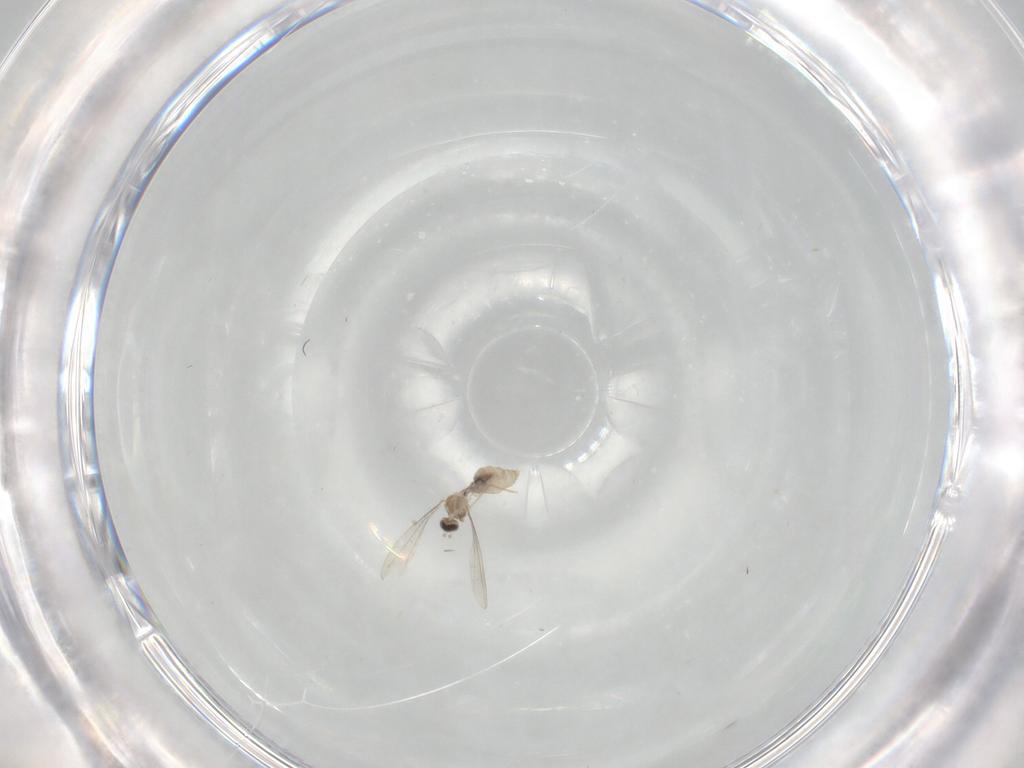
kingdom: Animalia
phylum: Arthropoda
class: Insecta
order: Diptera
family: Cecidomyiidae
